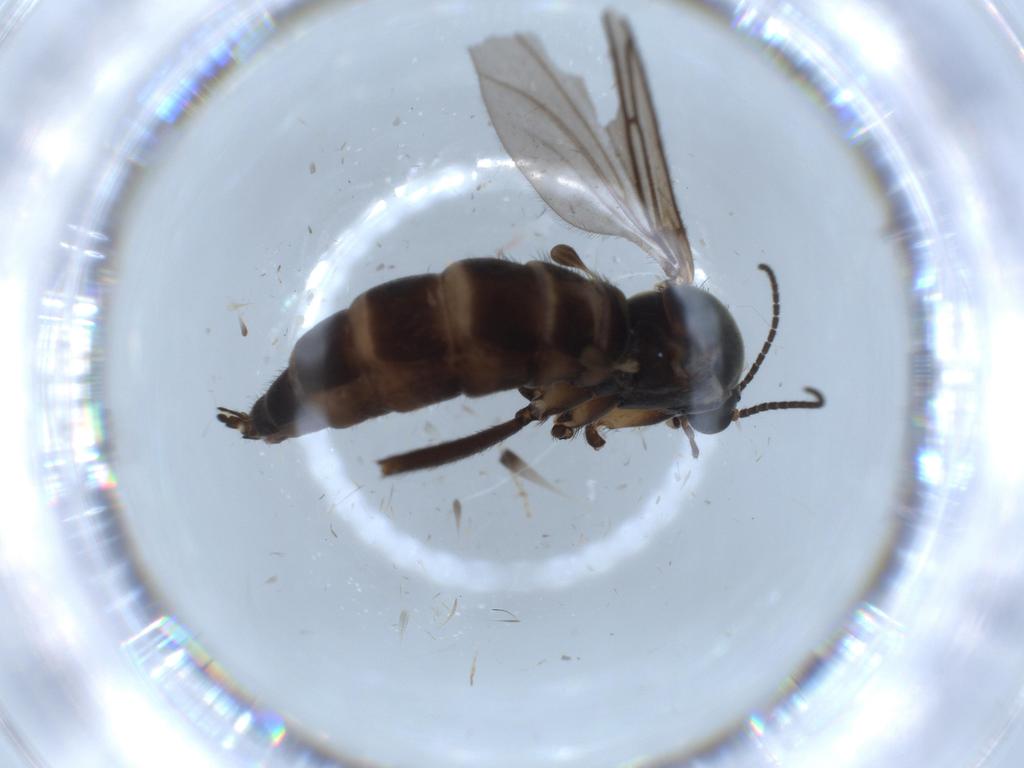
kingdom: Animalia
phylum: Arthropoda
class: Insecta
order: Diptera
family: Sciaridae
